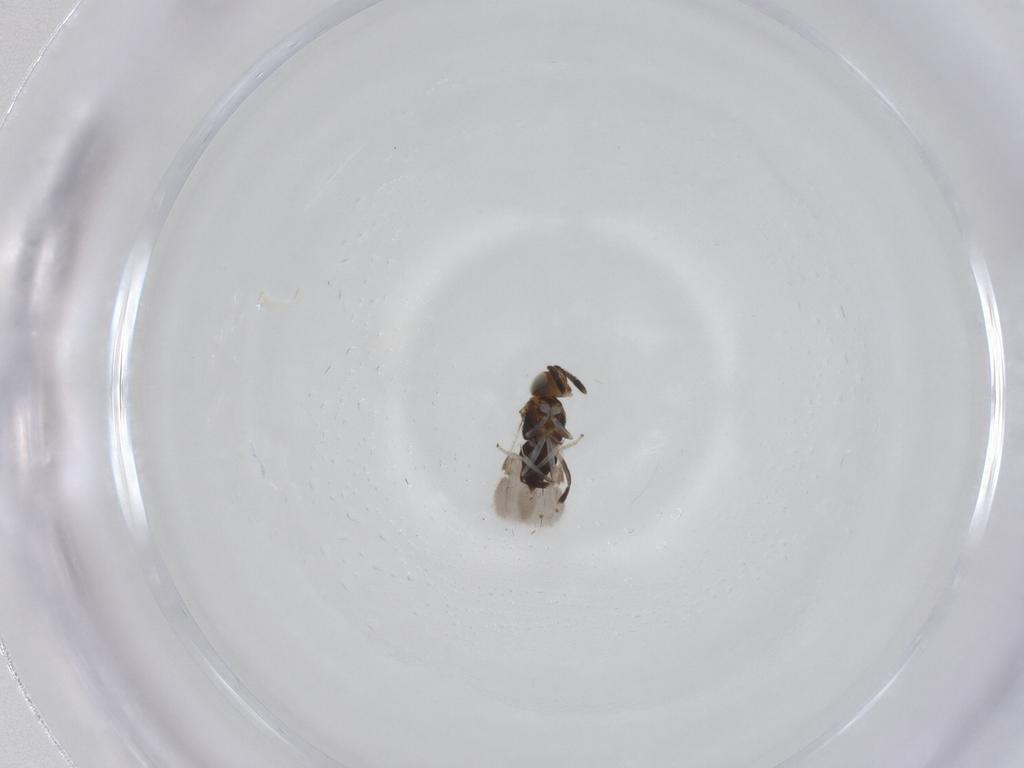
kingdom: Animalia
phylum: Arthropoda
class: Insecta
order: Hymenoptera
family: Encyrtidae
